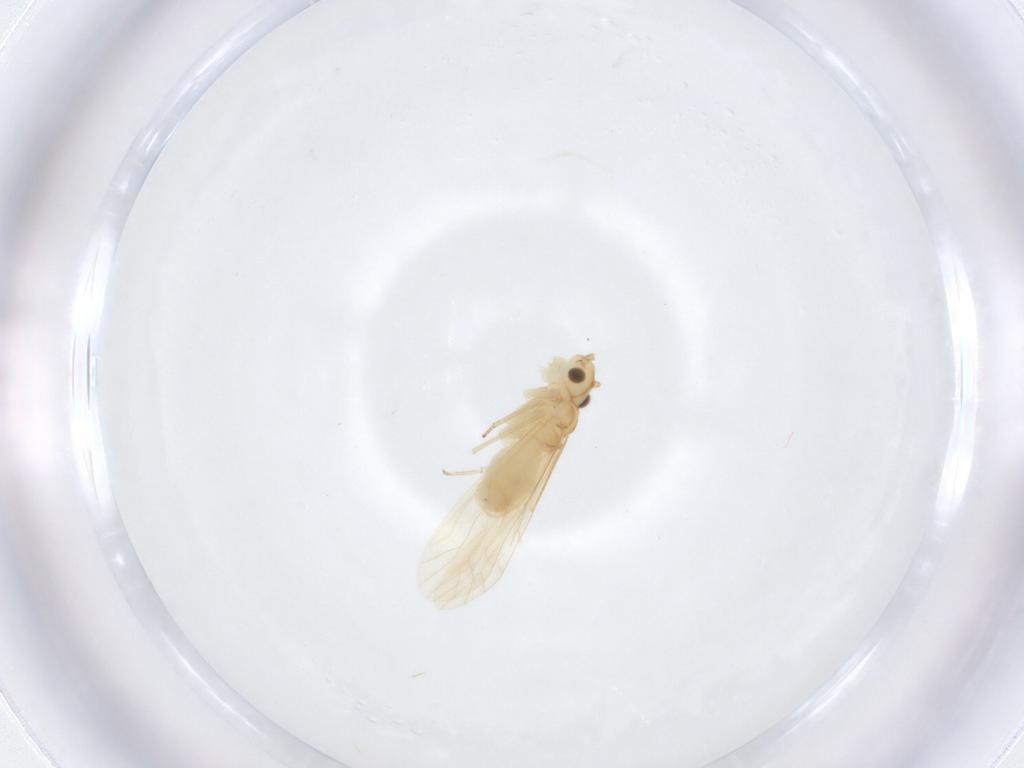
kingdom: Animalia
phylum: Arthropoda
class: Insecta
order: Psocodea
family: Caeciliusidae
